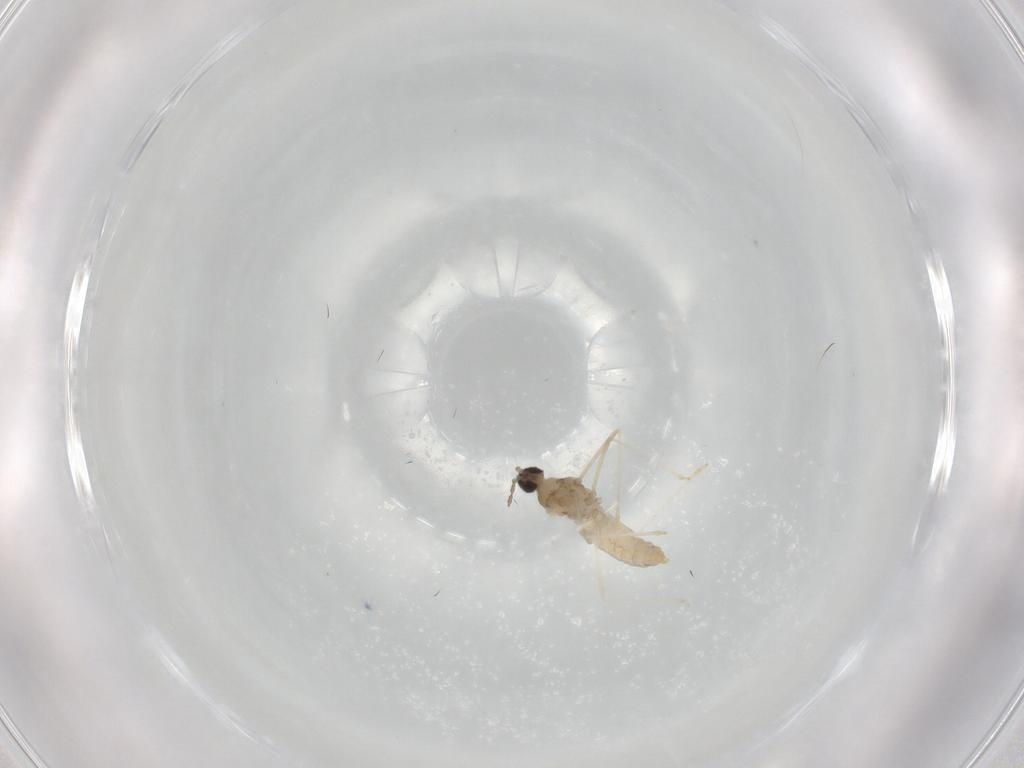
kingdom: Animalia
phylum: Arthropoda
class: Insecta
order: Diptera
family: Cecidomyiidae
